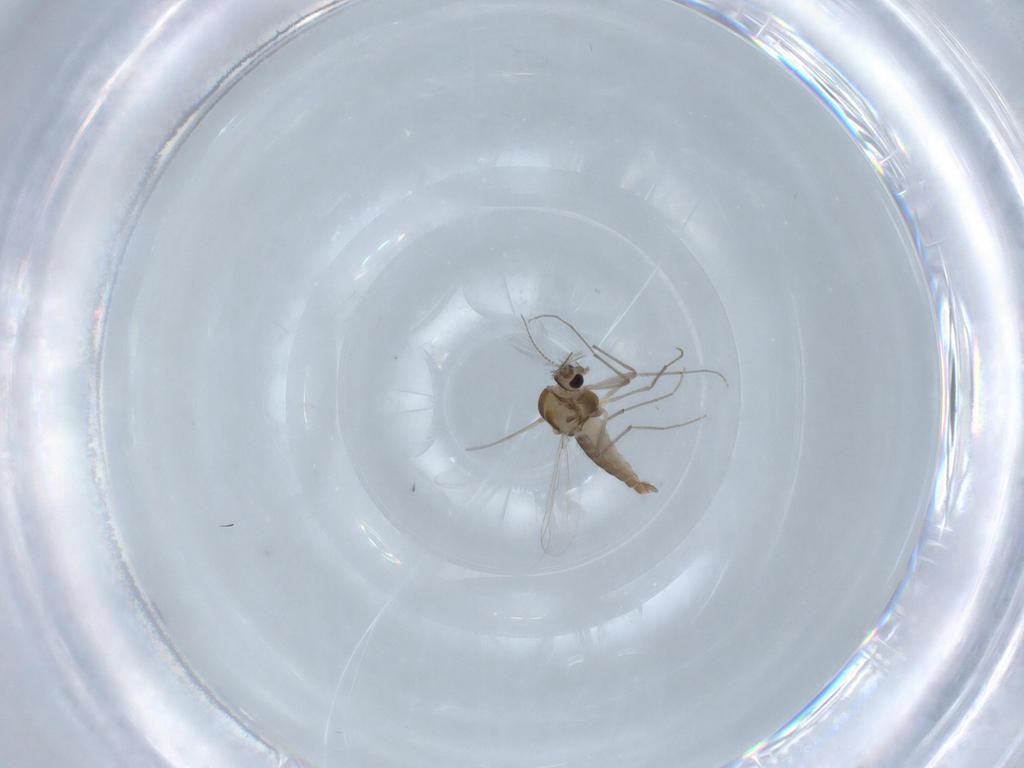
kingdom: Animalia
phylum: Arthropoda
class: Insecta
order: Diptera
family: Chironomidae
